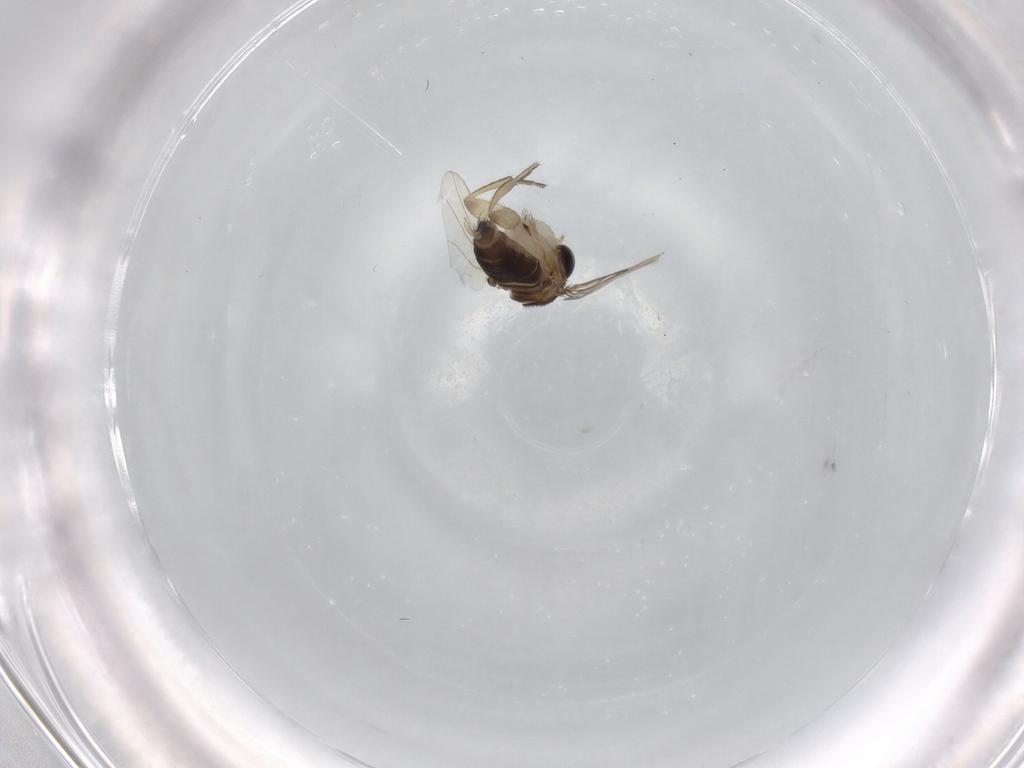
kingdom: Animalia
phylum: Arthropoda
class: Insecta
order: Diptera
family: Phoridae
